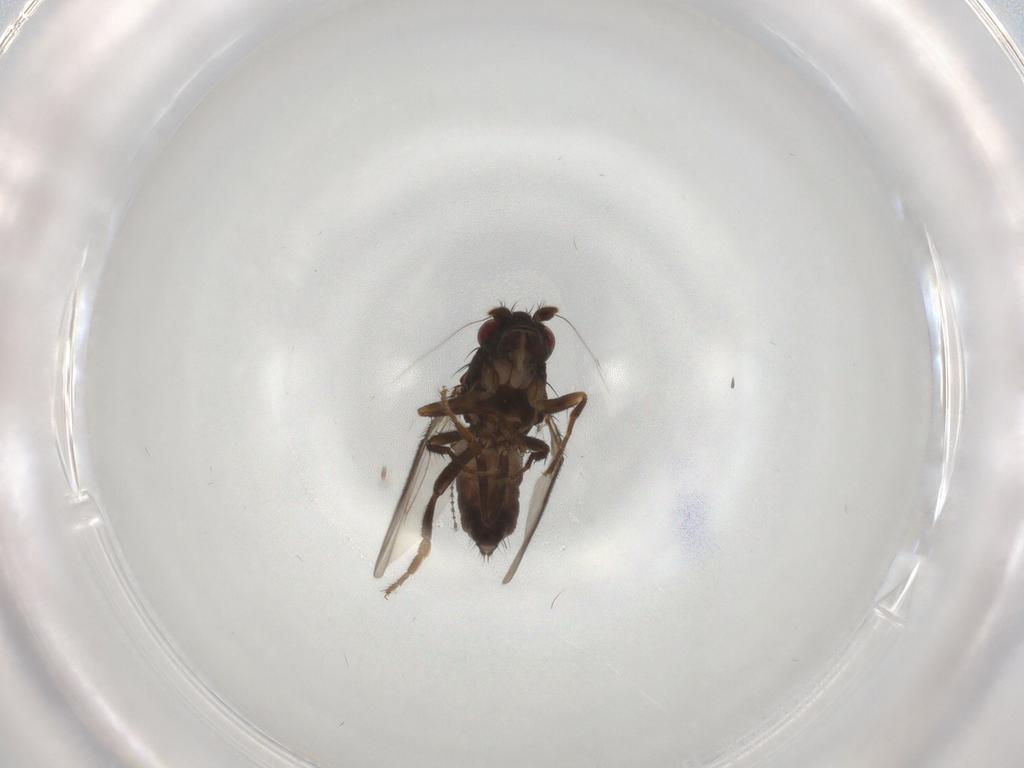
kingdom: Animalia
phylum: Arthropoda
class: Insecta
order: Diptera
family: Sphaeroceridae
